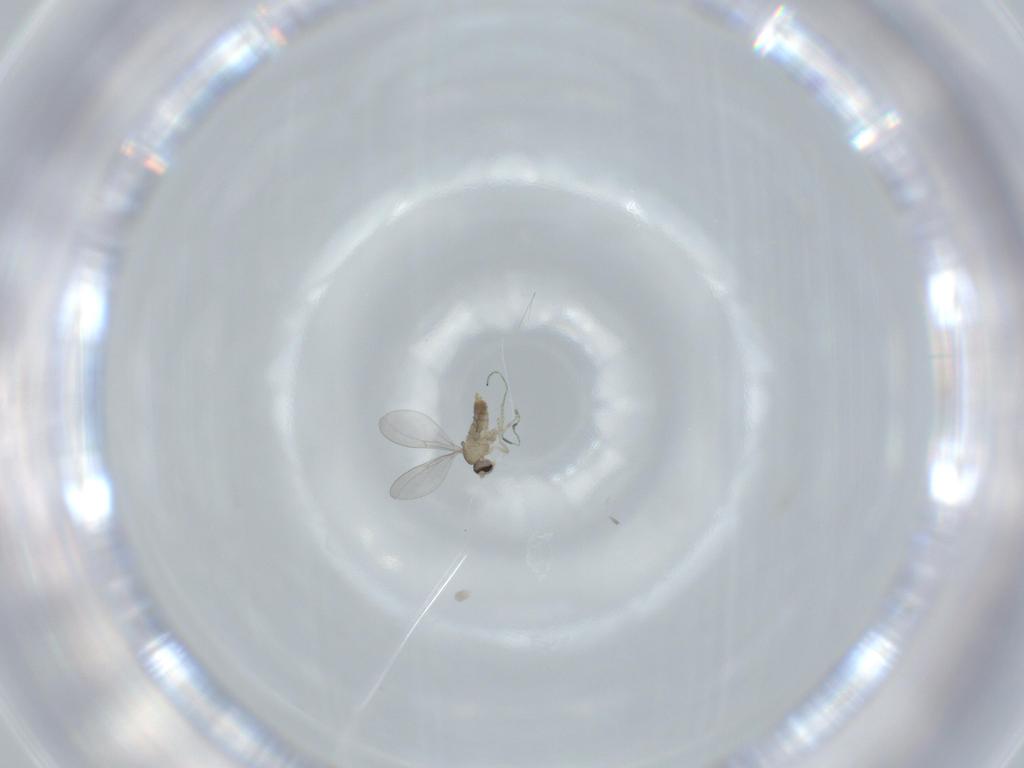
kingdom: Animalia
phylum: Arthropoda
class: Insecta
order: Diptera
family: Cecidomyiidae
